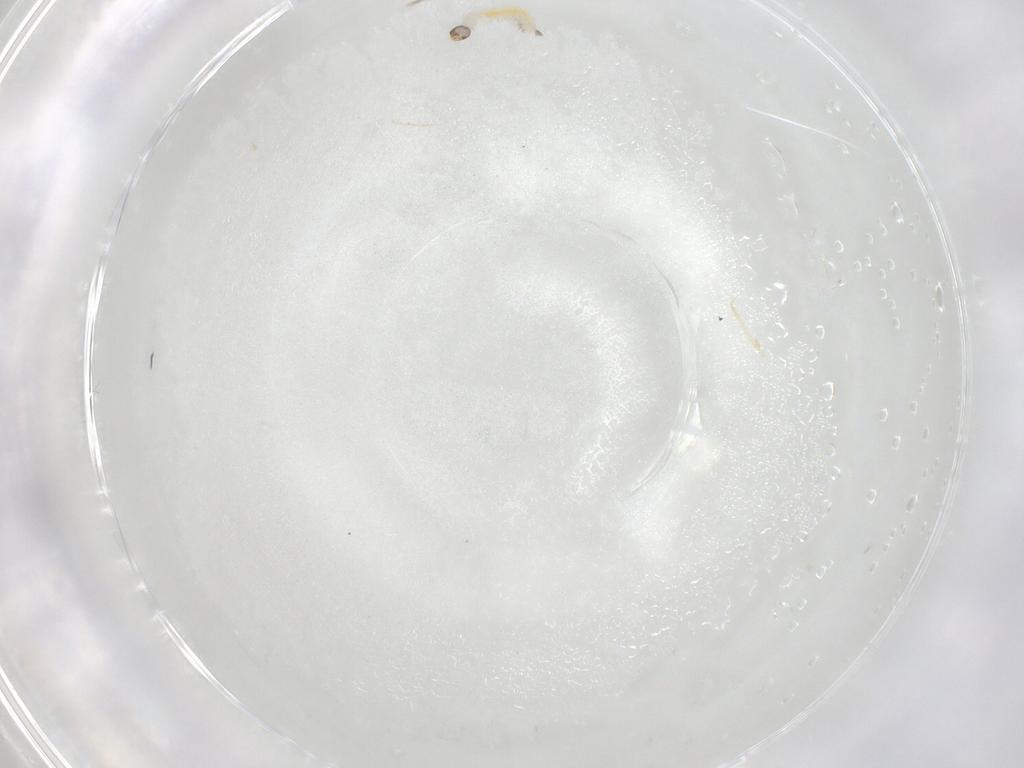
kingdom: Animalia
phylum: Arthropoda
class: Insecta
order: Lepidoptera
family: Lecithoceridae
